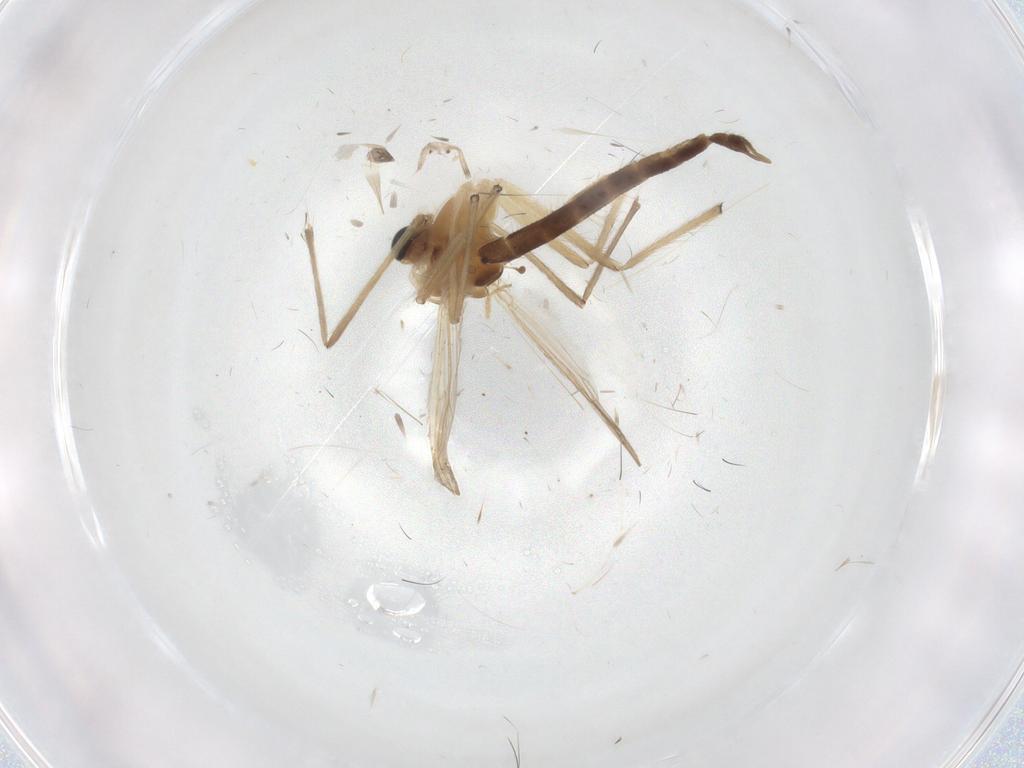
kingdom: Animalia
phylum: Arthropoda
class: Insecta
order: Diptera
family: Chironomidae
